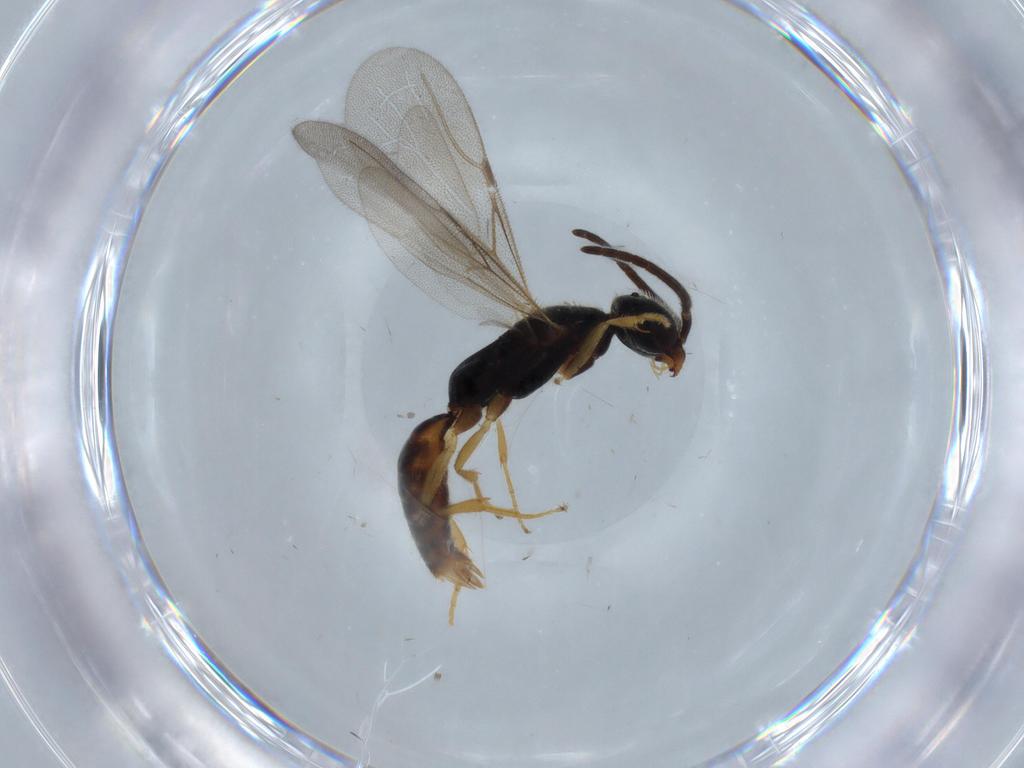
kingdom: Animalia
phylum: Arthropoda
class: Insecta
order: Hymenoptera
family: Bethylidae
